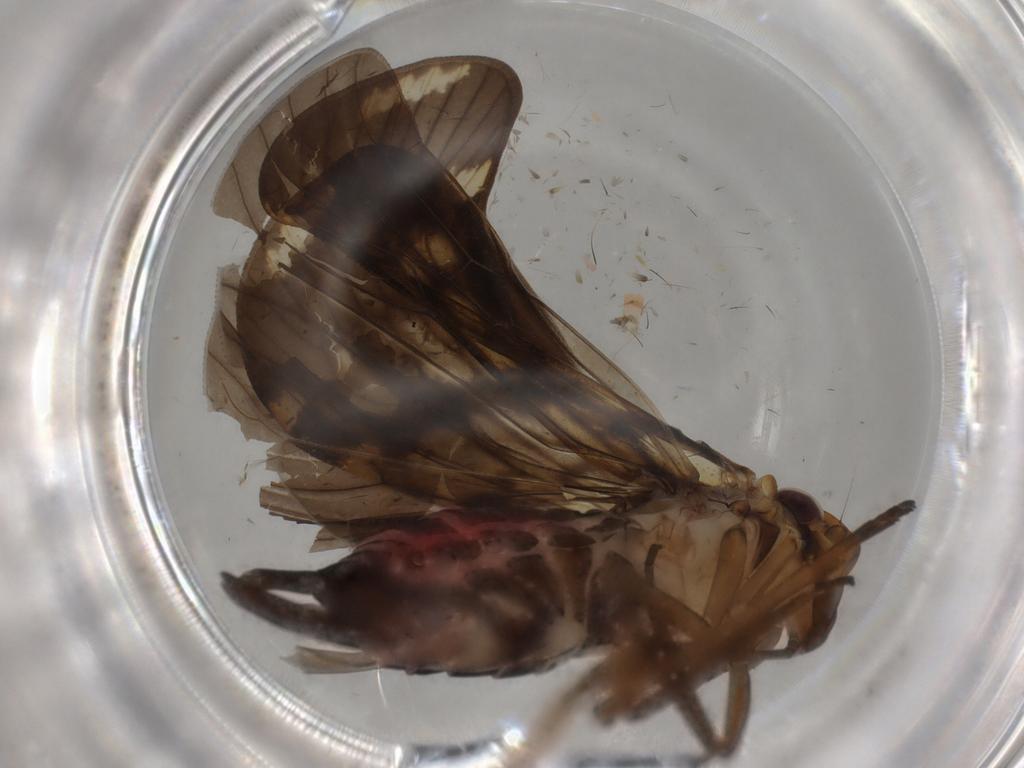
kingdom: Animalia
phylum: Arthropoda
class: Insecta
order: Hemiptera
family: Cixiidae
